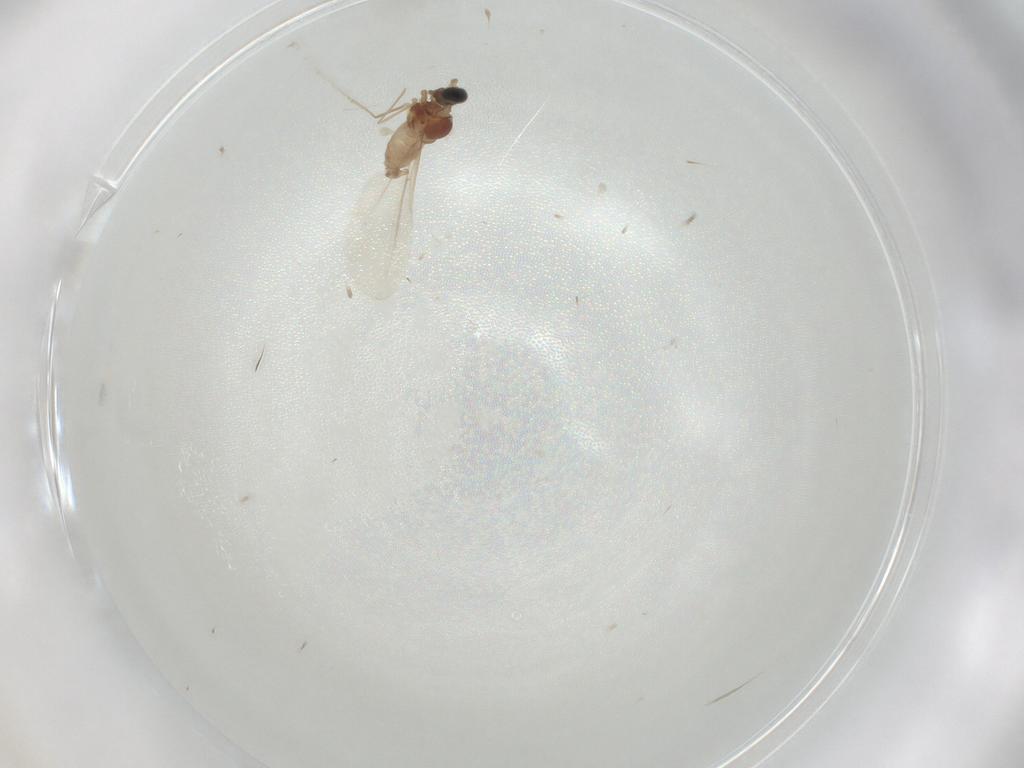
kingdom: Animalia
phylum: Arthropoda
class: Insecta
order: Diptera
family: Cecidomyiidae
